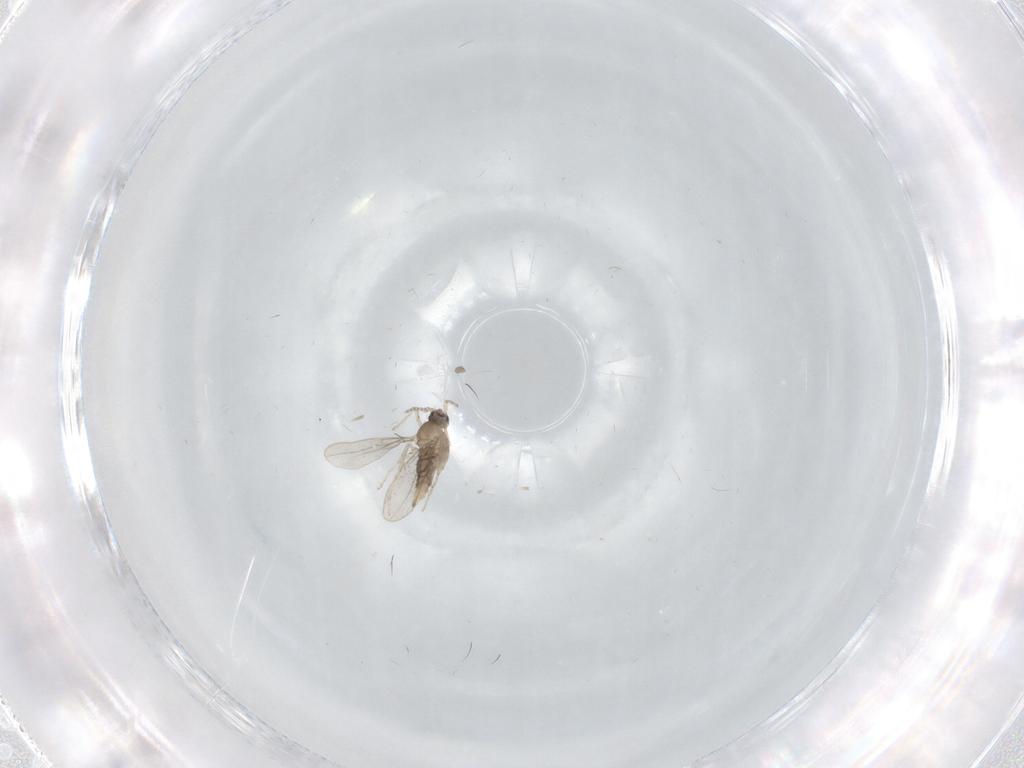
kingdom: Animalia
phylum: Arthropoda
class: Insecta
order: Diptera
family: Cecidomyiidae
